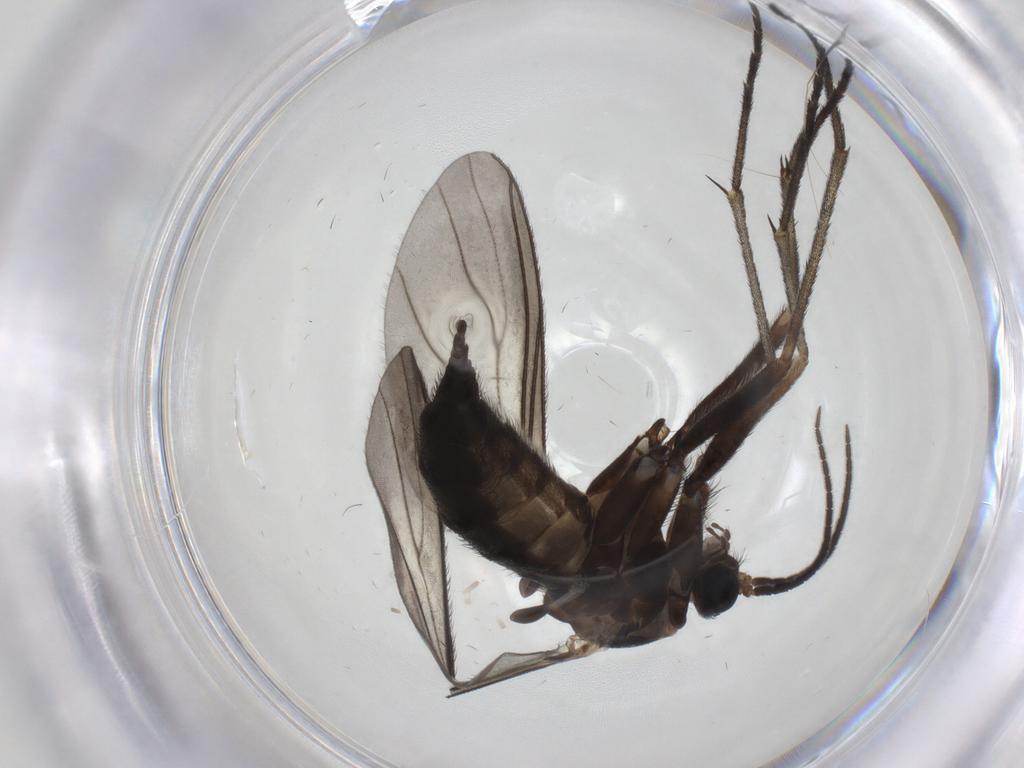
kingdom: Animalia
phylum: Arthropoda
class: Insecta
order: Diptera
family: Sciaridae
